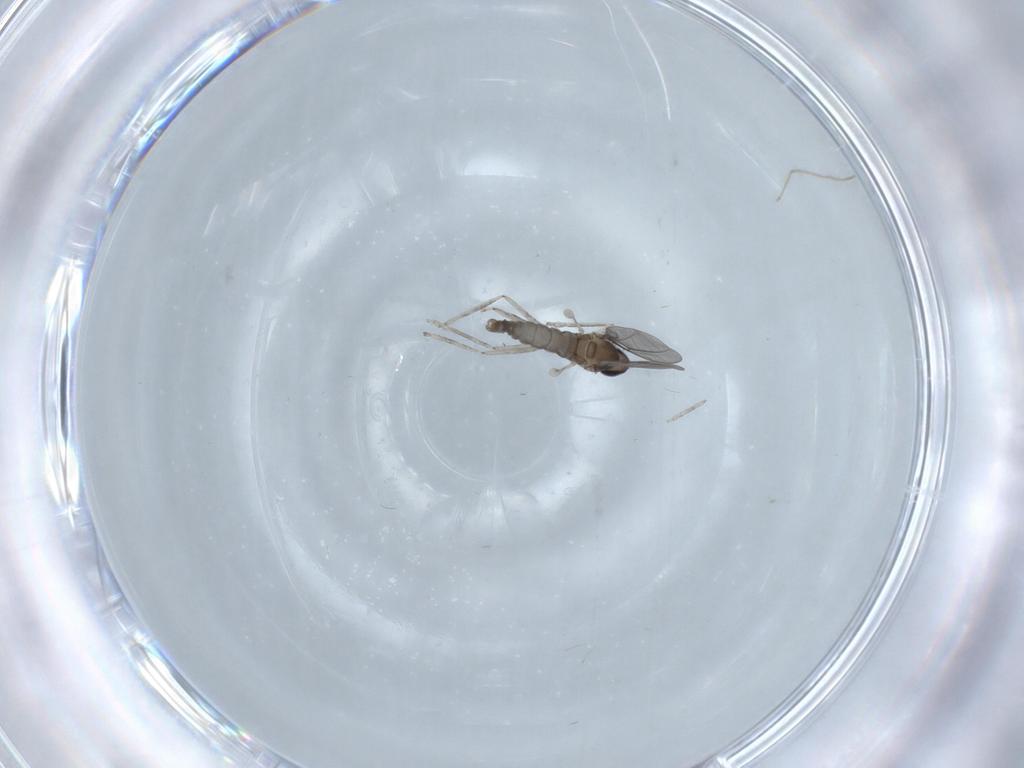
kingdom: Animalia
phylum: Arthropoda
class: Insecta
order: Diptera
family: Cecidomyiidae
